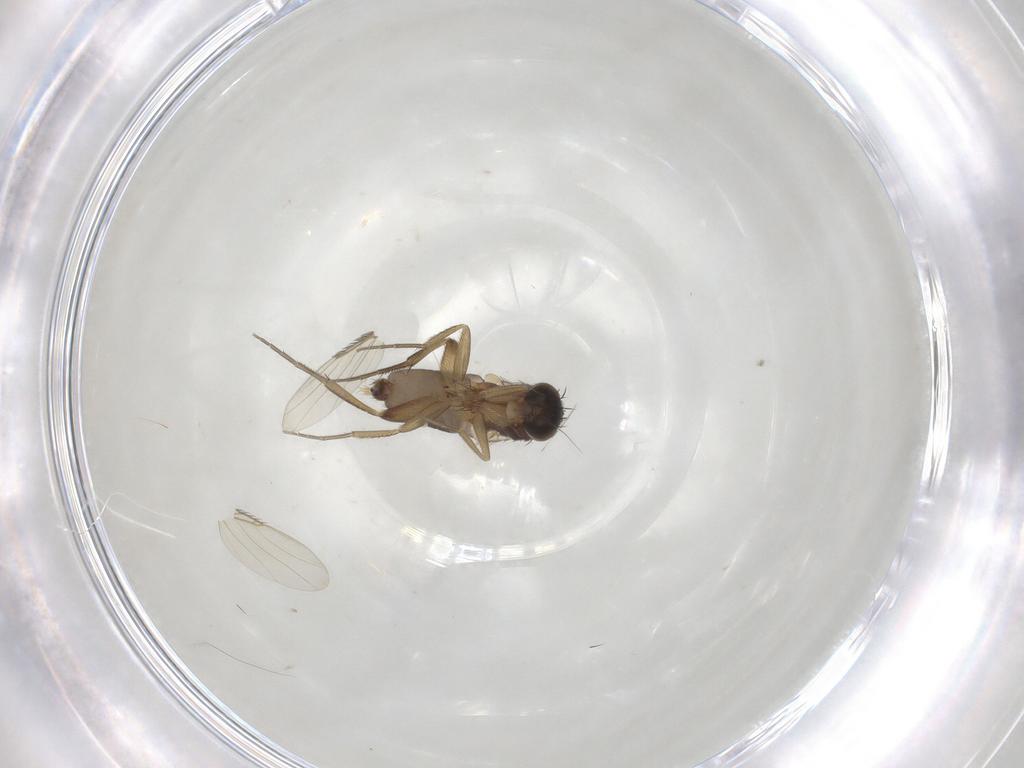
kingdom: Animalia
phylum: Arthropoda
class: Insecta
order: Diptera
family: Phoridae
